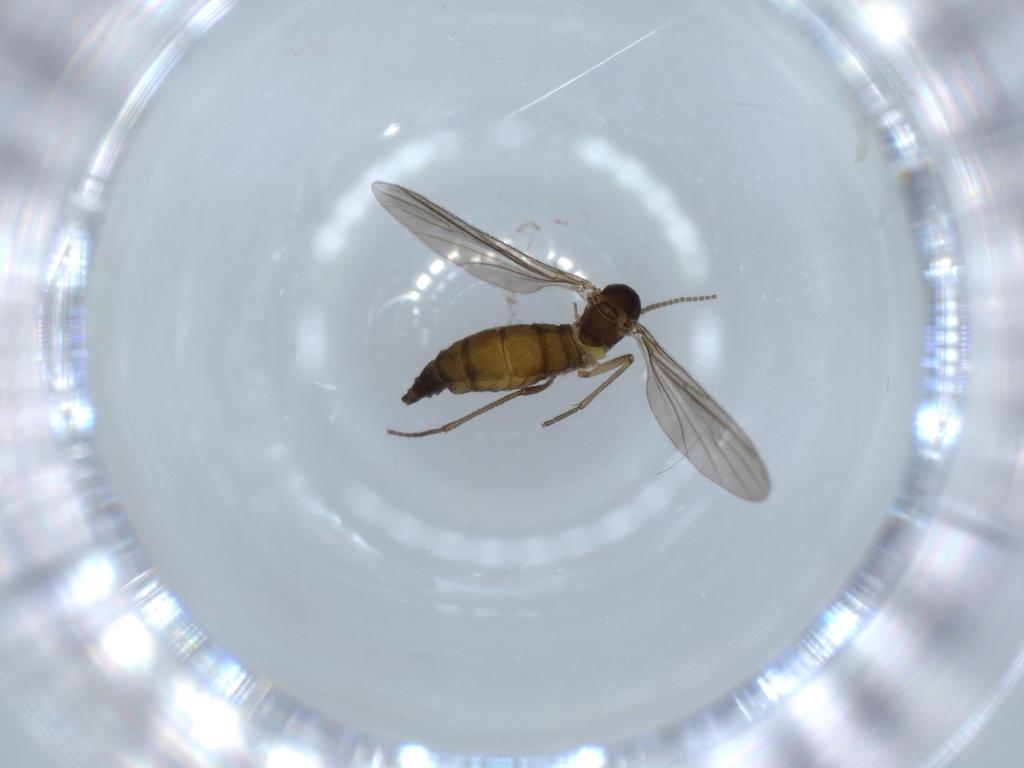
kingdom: Animalia
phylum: Arthropoda
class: Insecta
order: Diptera
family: Sciaridae
